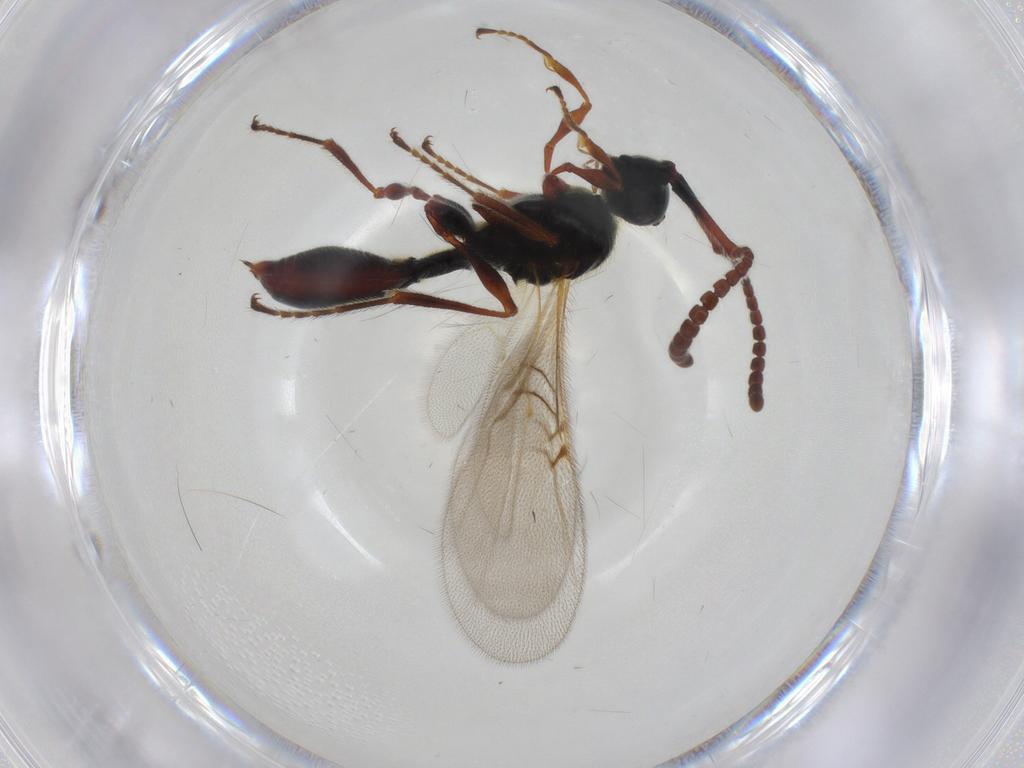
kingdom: Animalia
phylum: Arthropoda
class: Insecta
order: Hymenoptera
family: Diapriidae
